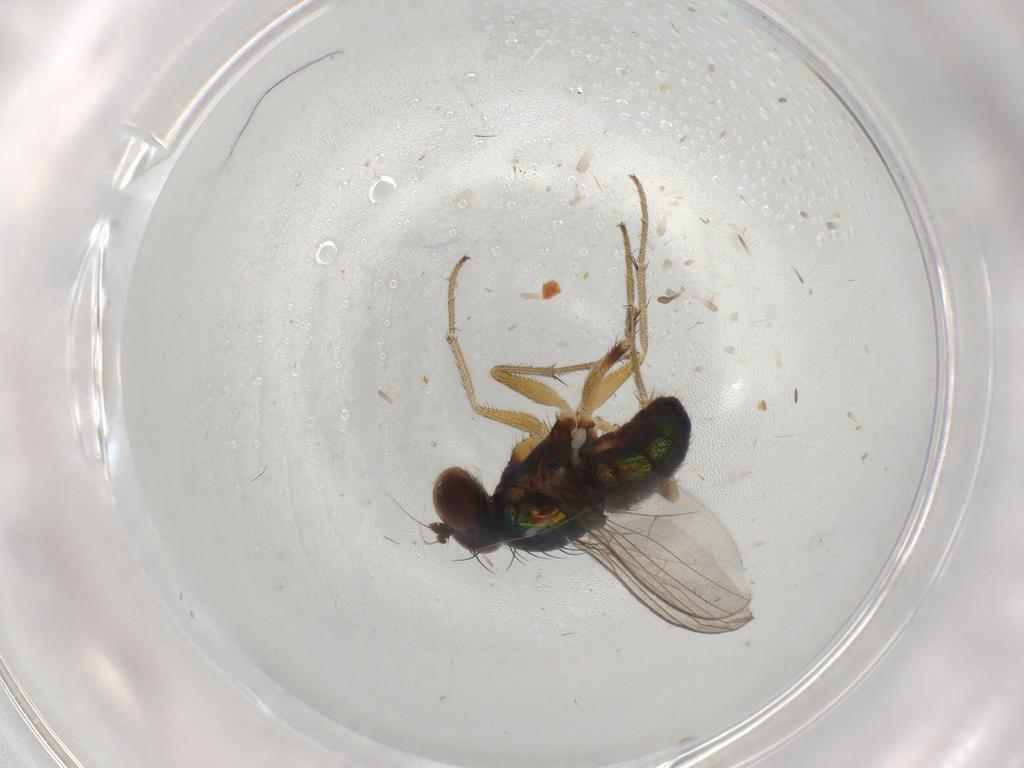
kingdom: Animalia
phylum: Arthropoda
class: Insecta
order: Diptera
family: Dolichopodidae
